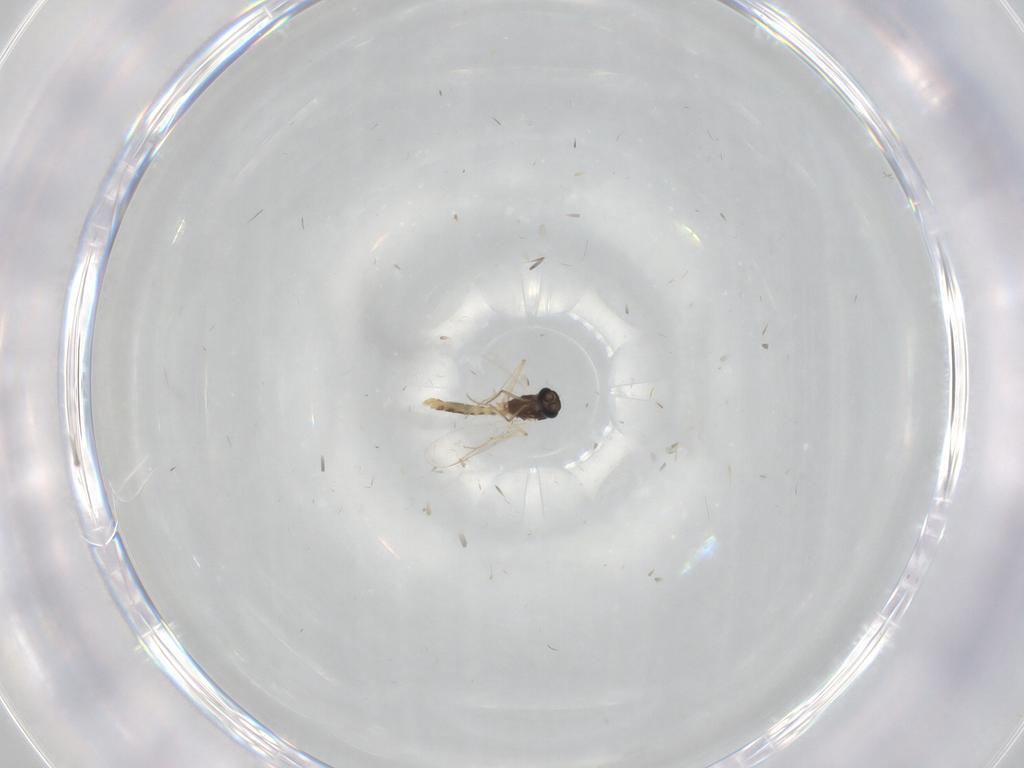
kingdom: Animalia
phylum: Arthropoda
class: Insecta
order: Diptera
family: Chironomidae
